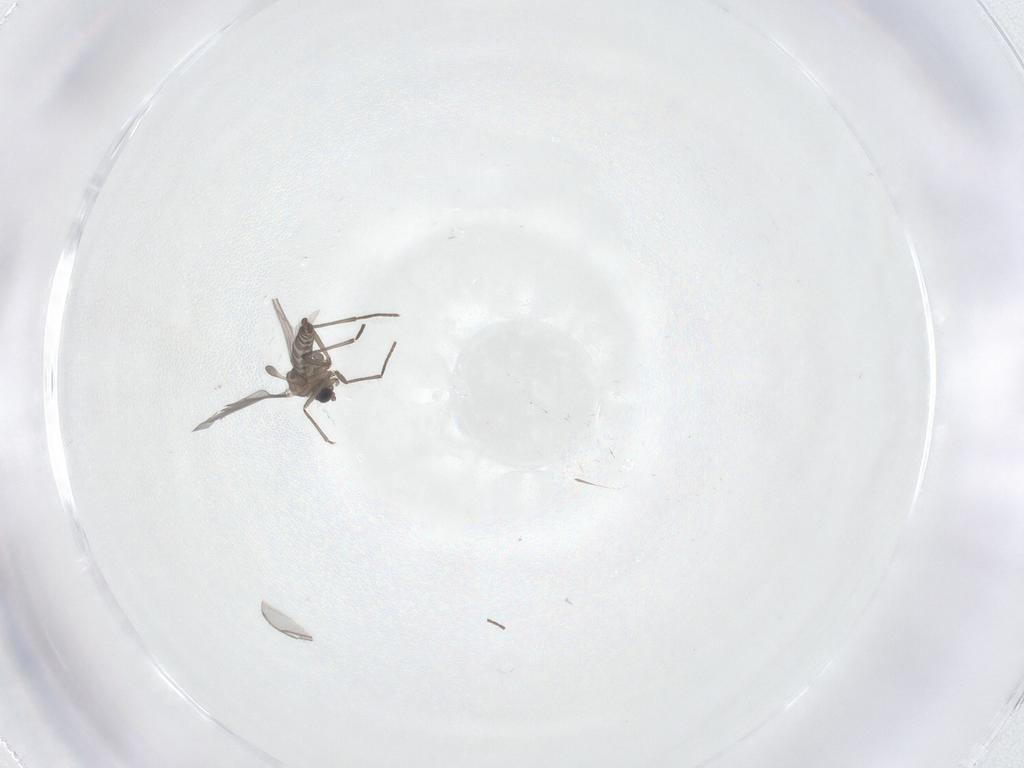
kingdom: Animalia
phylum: Arthropoda
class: Insecta
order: Diptera
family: Sciaridae
